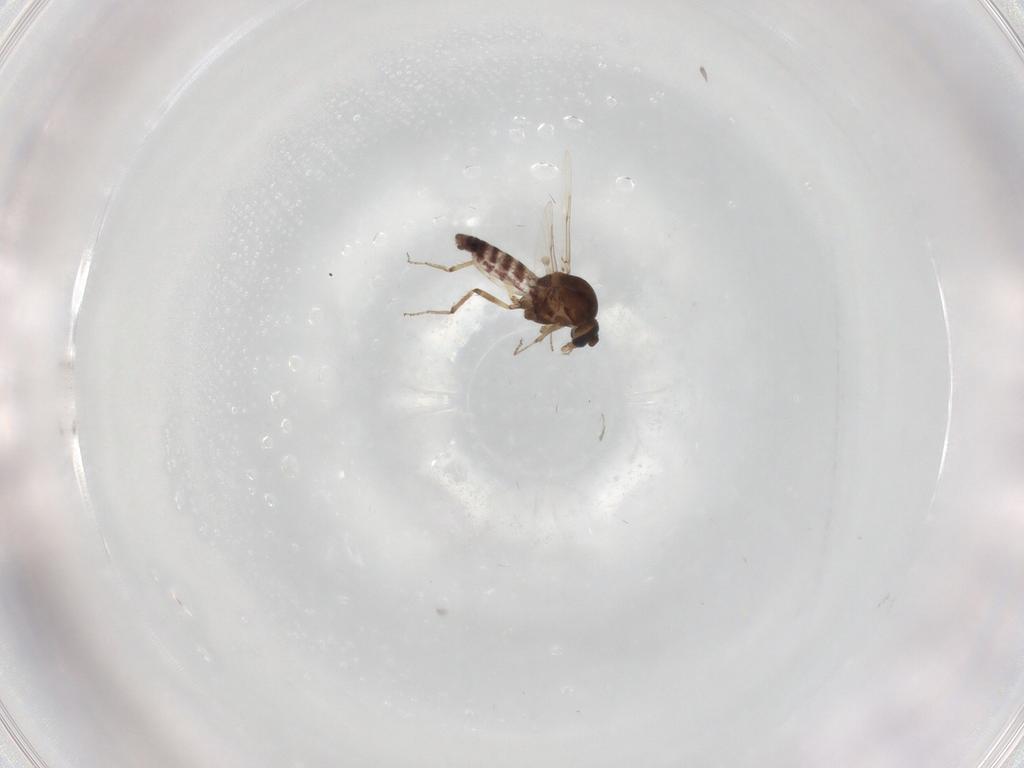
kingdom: Animalia
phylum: Arthropoda
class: Insecta
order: Diptera
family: Ceratopogonidae
